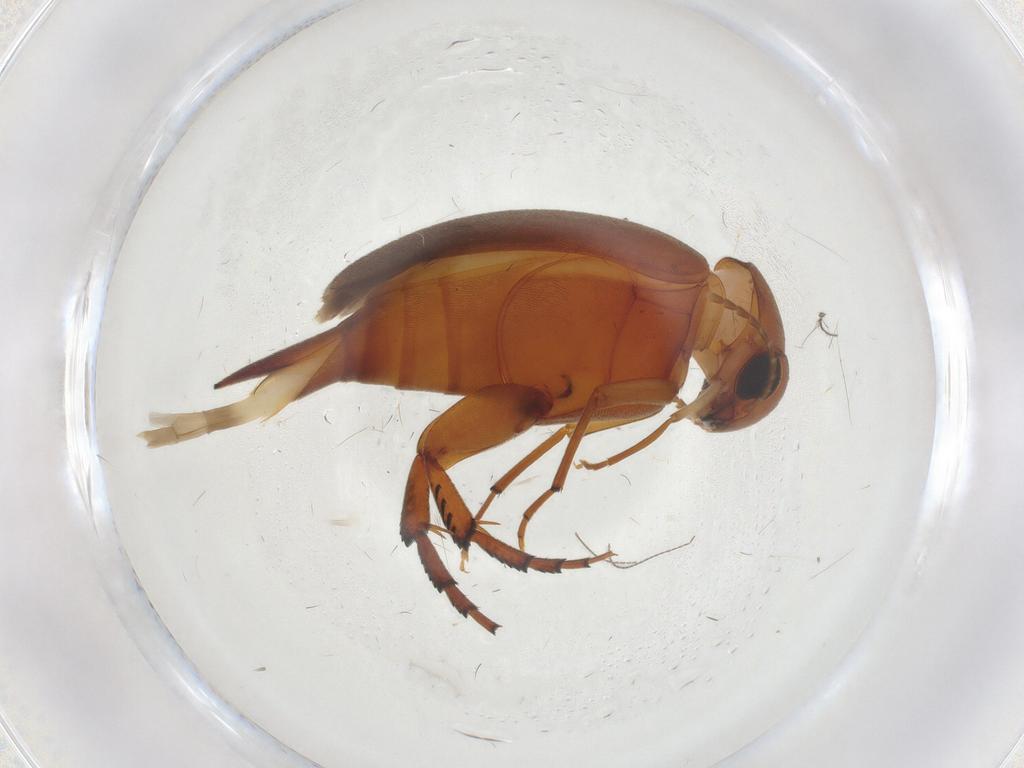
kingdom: Animalia
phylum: Arthropoda
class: Insecta
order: Coleoptera
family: Mordellidae
